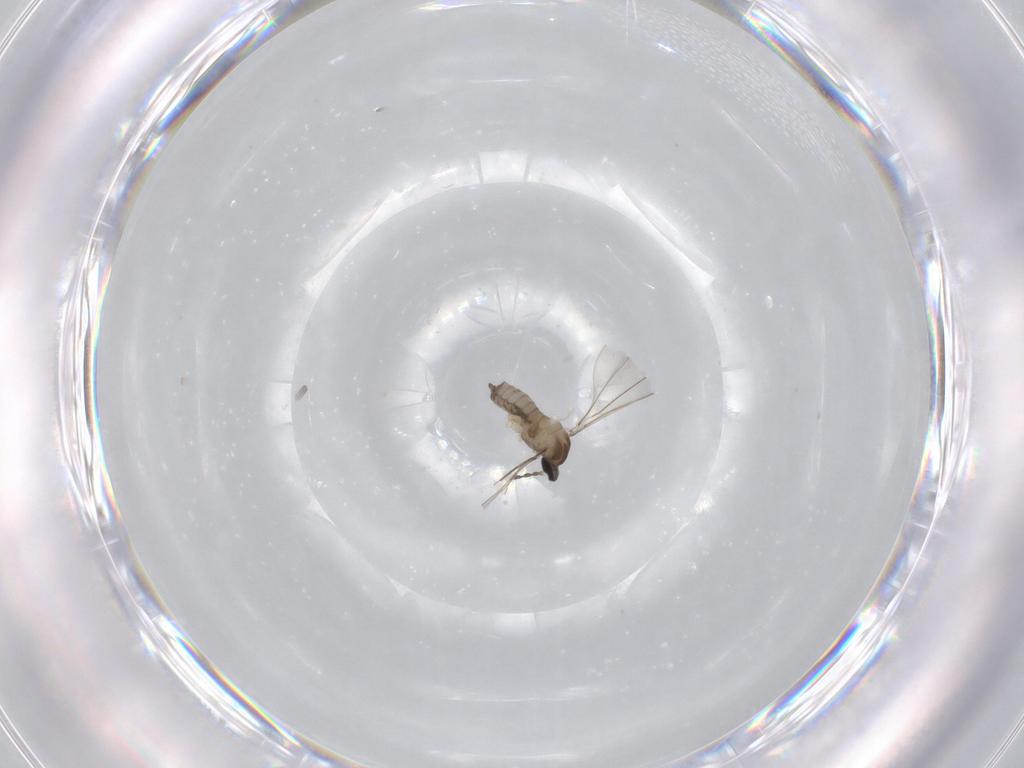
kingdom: Animalia
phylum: Arthropoda
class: Insecta
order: Diptera
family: Cecidomyiidae
